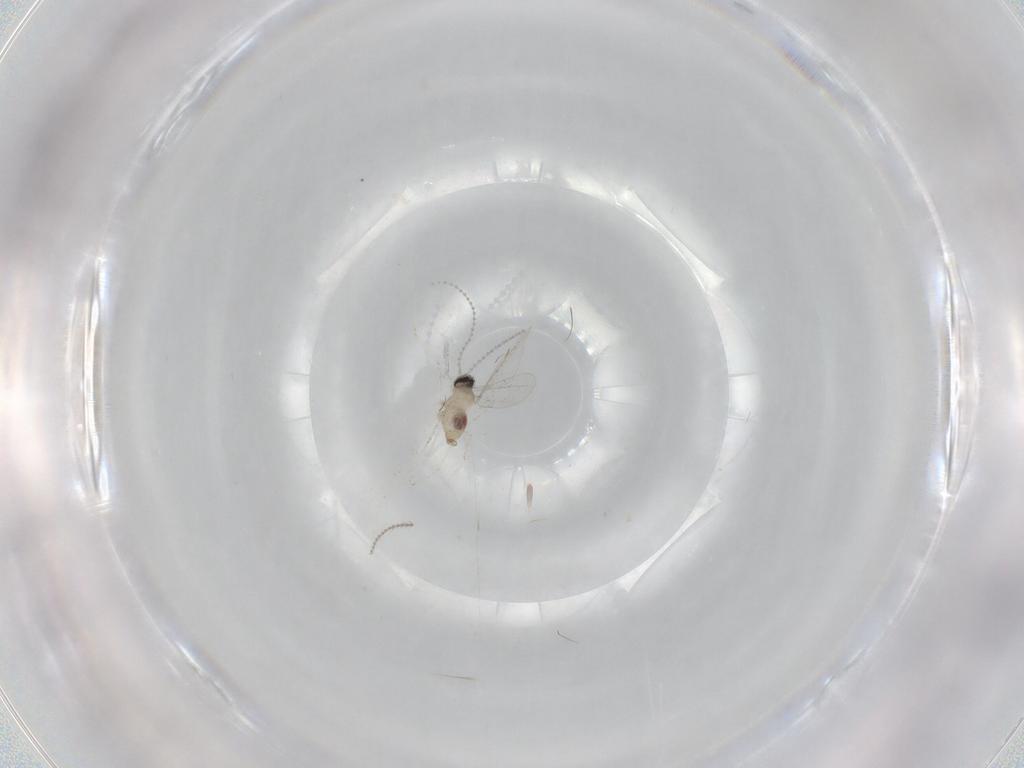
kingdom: Animalia
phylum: Arthropoda
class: Insecta
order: Diptera
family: Cecidomyiidae
